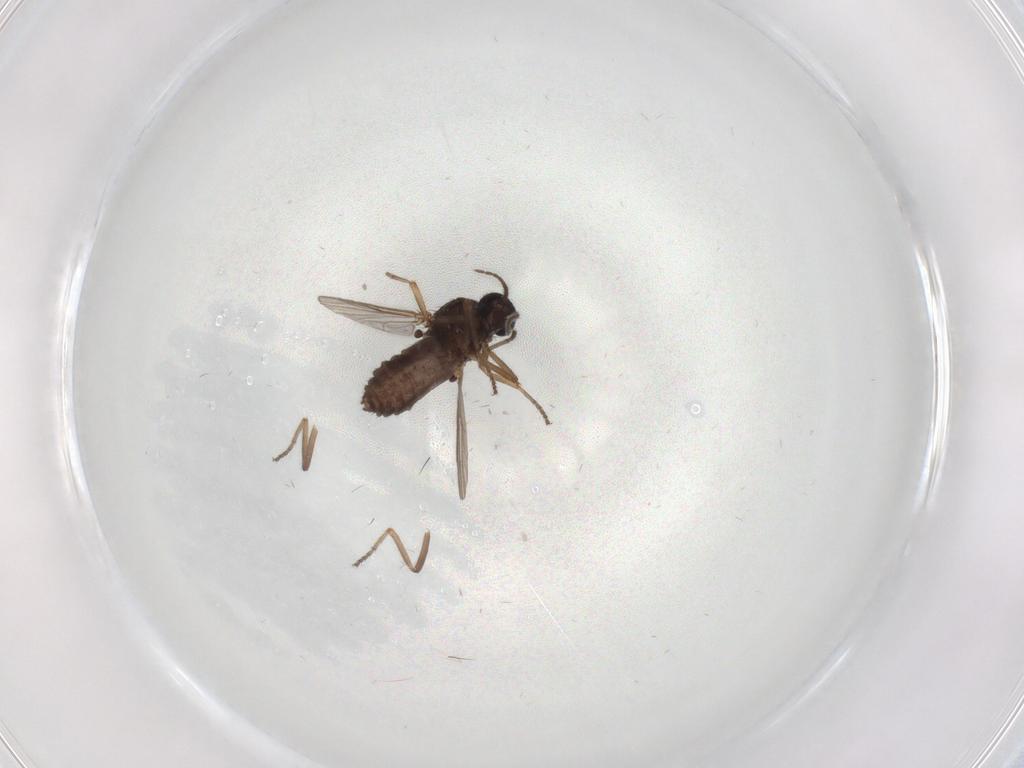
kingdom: Animalia
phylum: Arthropoda
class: Insecta
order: Diptera
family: Ceratopogonidae
